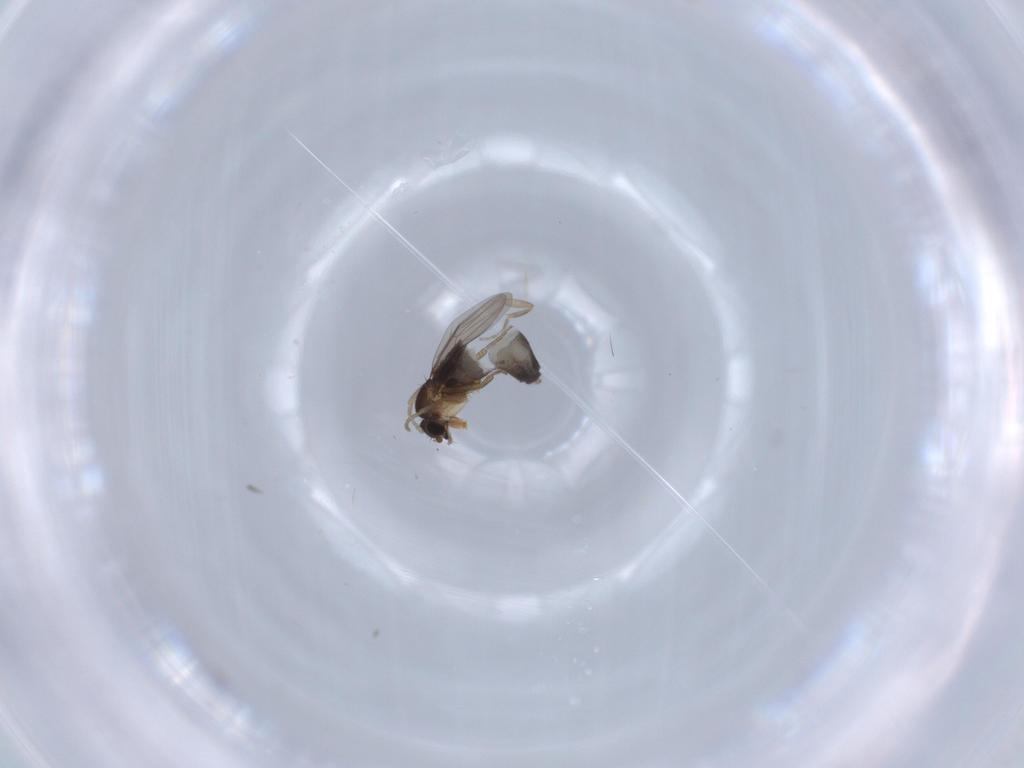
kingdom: Animalia
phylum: Arthropoda
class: Insecta
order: Diptera
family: Phoridae
